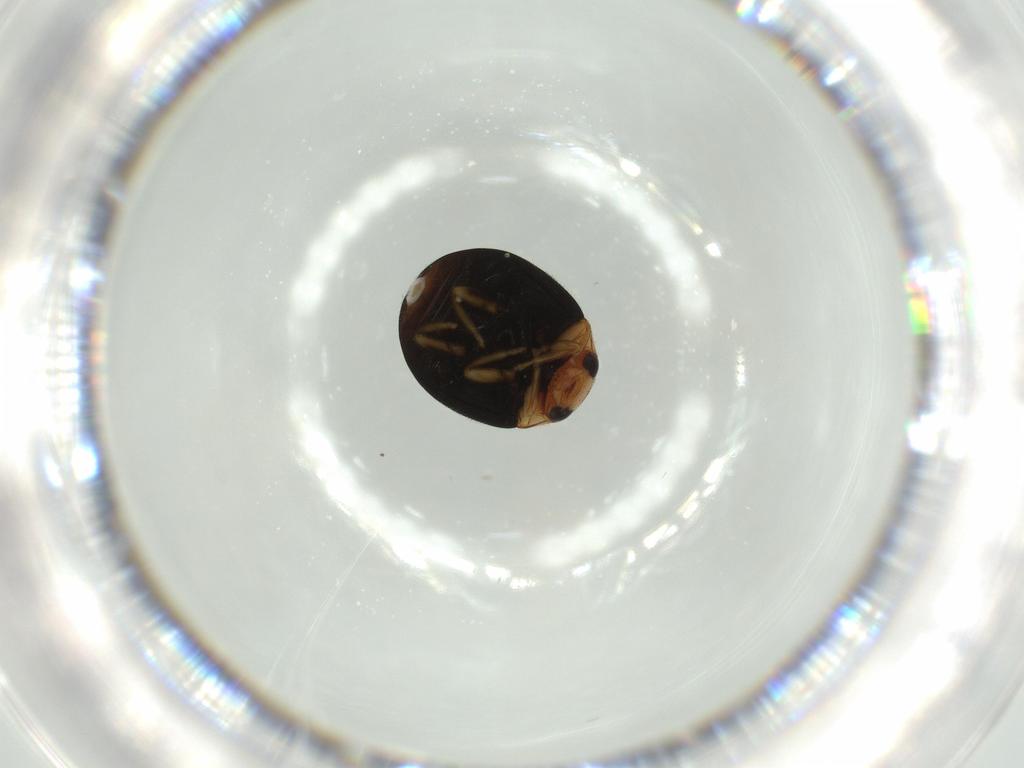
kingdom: Animalia
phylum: Arthropoda
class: Insecta
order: Coleoptera
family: Coccinellidae
